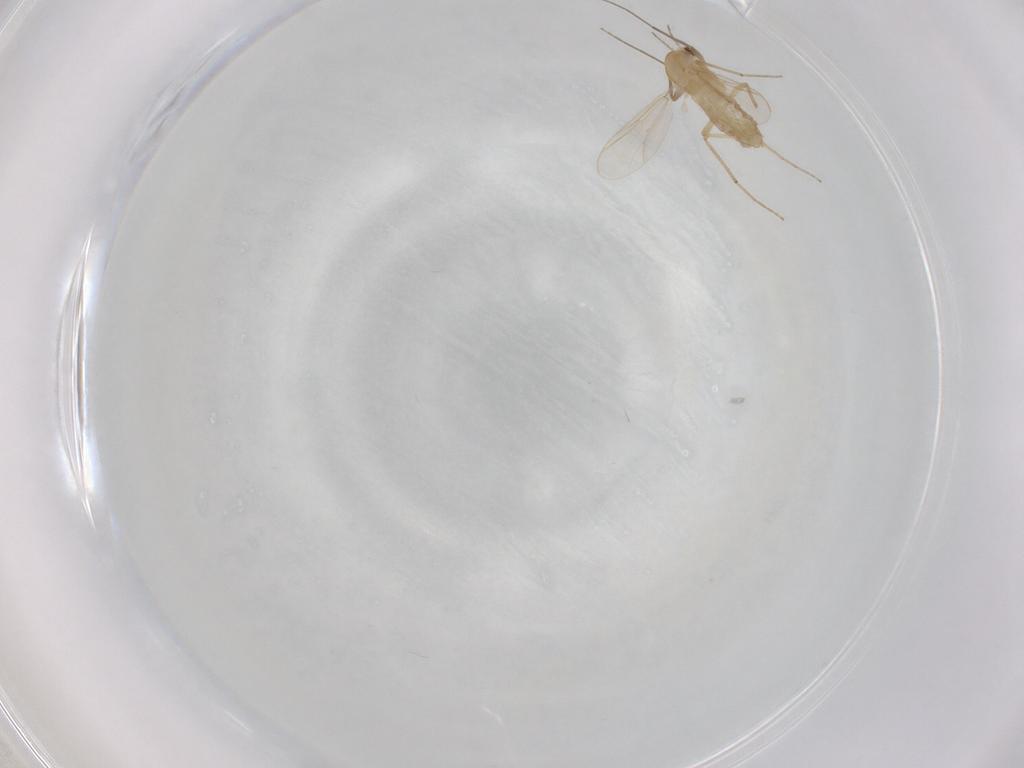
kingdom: Animalia
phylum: Arthropoda
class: Insecta
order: Diptera
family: Chironomidae
